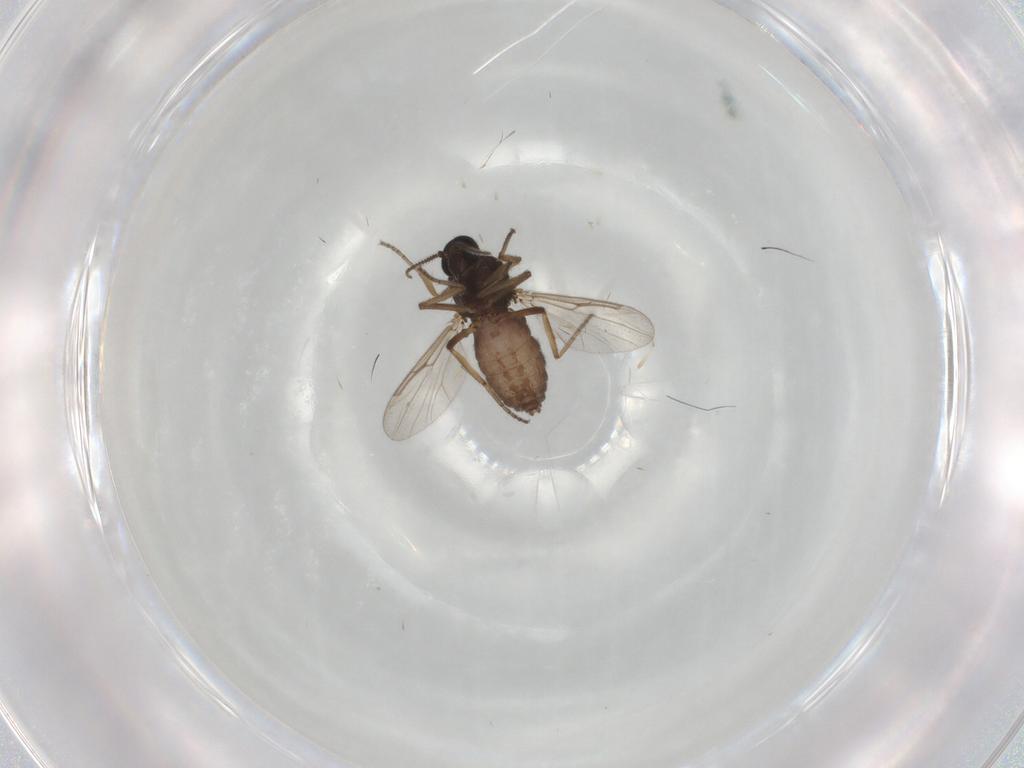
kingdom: Animalia
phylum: Arthropoda
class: Insecta
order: Diptera
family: Ceratopogonidae
